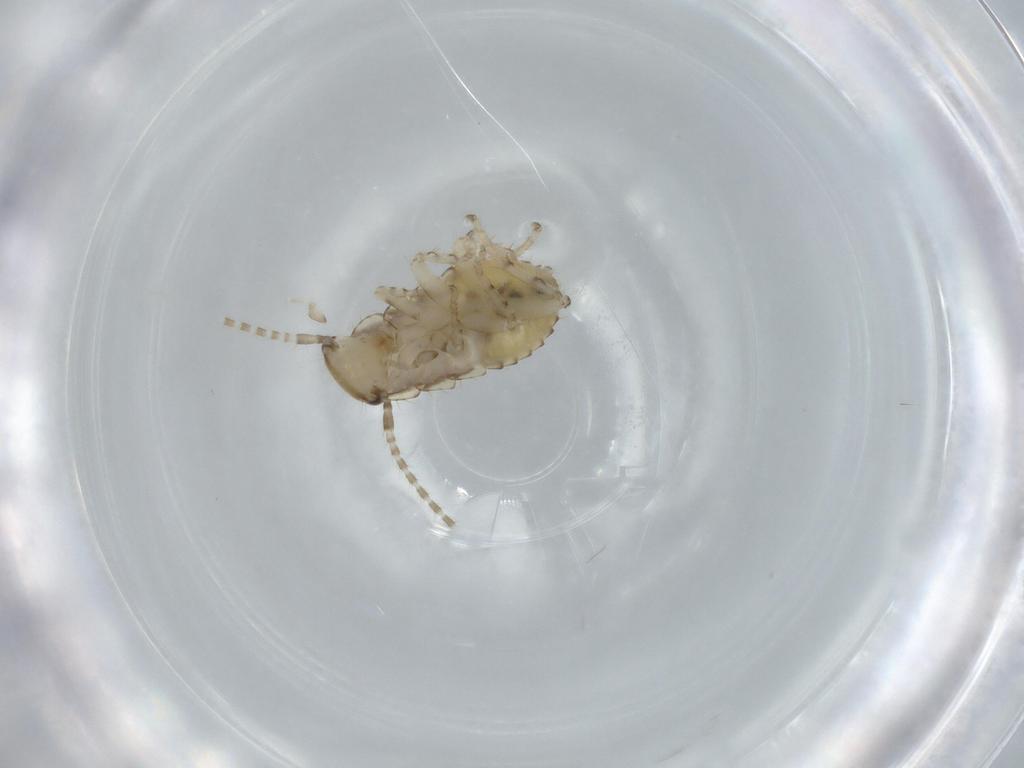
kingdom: Animalia
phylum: Arthropoda
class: Insecta
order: Blattodea
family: Ectobiidae
